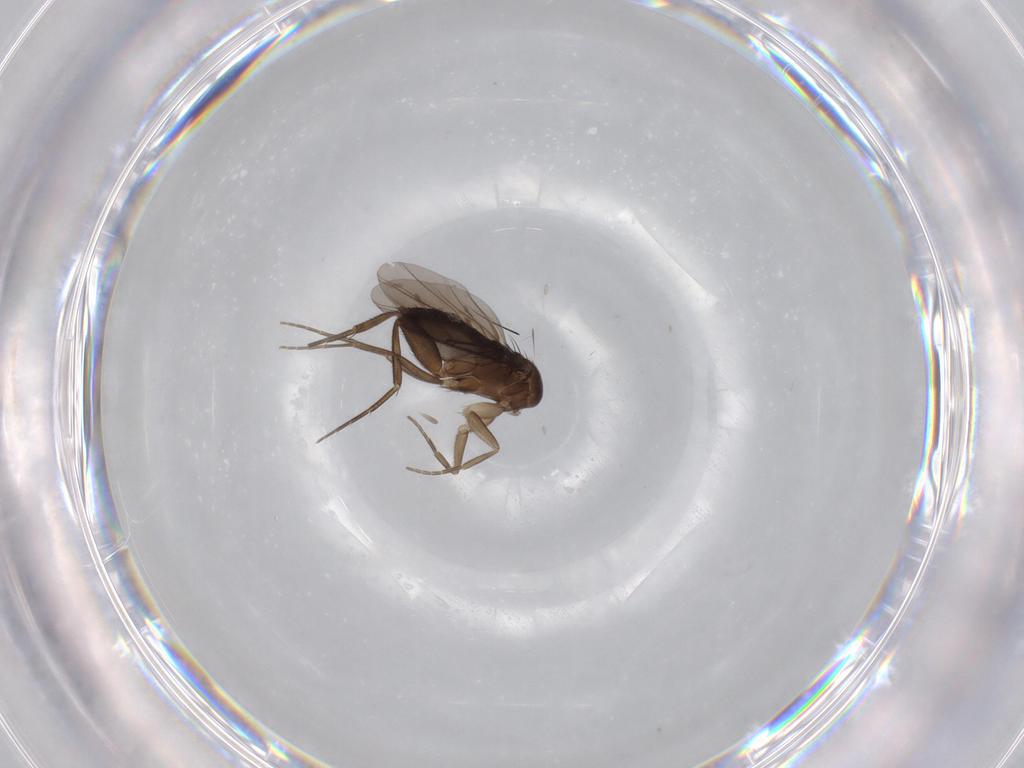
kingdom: Animalia
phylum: Arthropoda
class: Insecta
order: Diptera
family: Phoridae
